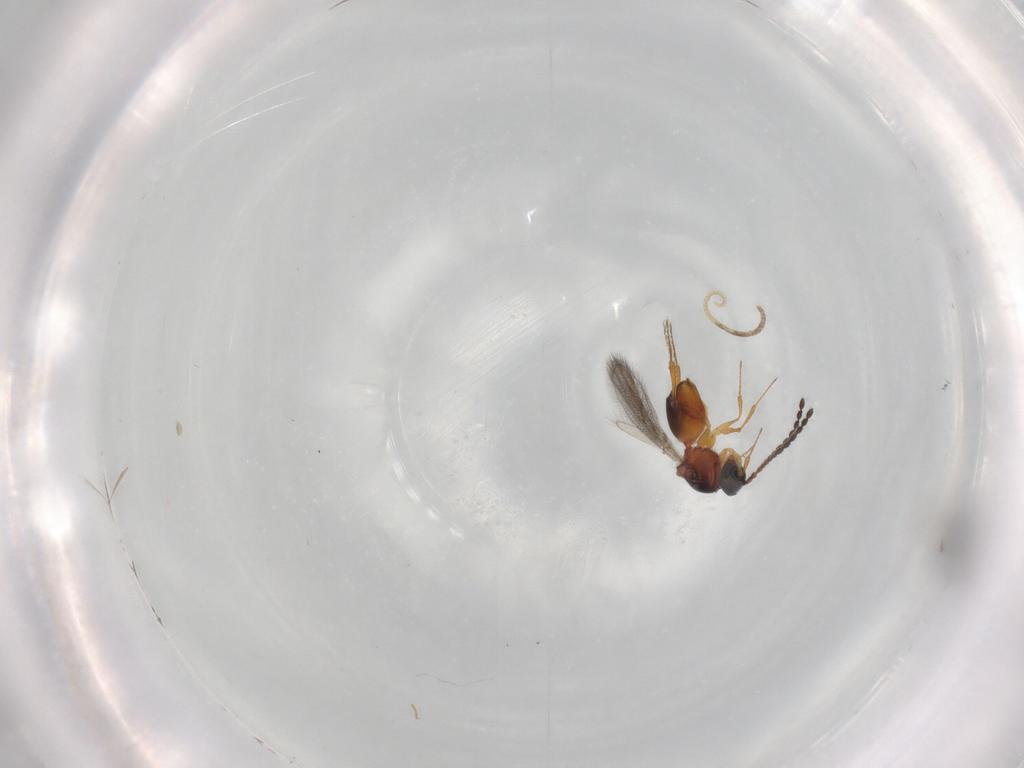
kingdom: Animalia
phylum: Arthropoda
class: Insecta
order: Hymenoptera
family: Figitidae
